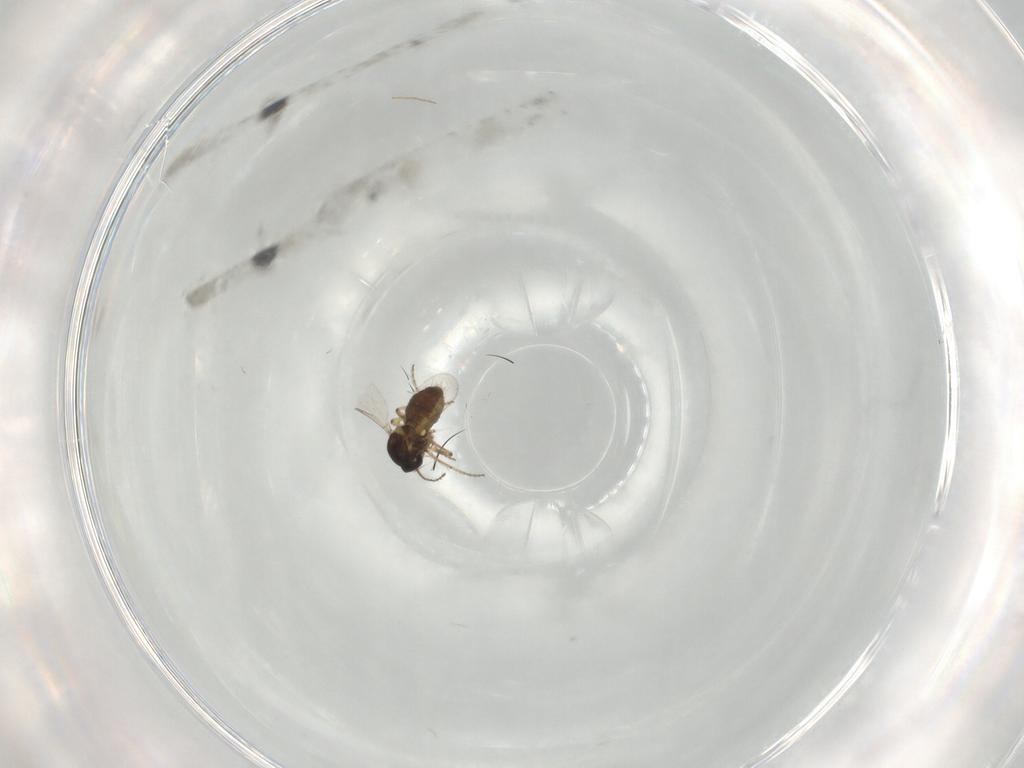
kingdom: Animalia
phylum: Arthropoda
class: Insecta
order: Diptera
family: Ceratopogonidae
